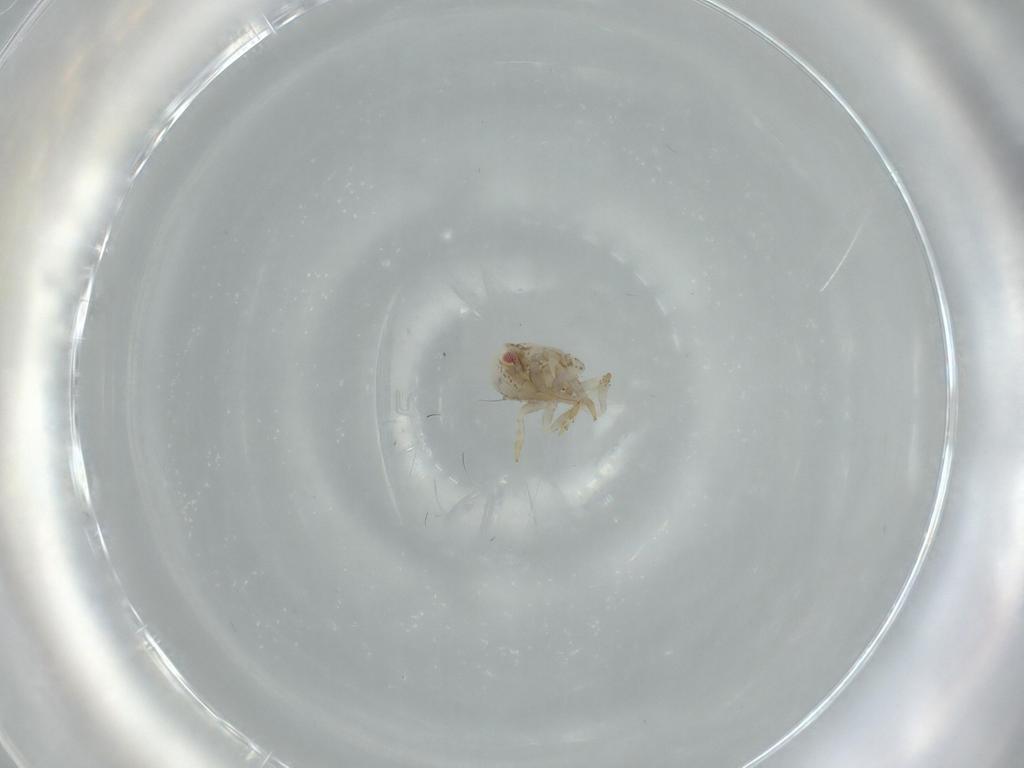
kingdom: Animalia
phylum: Arthropoda
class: Insecta
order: Hemiptera
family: Acanaloniidae
